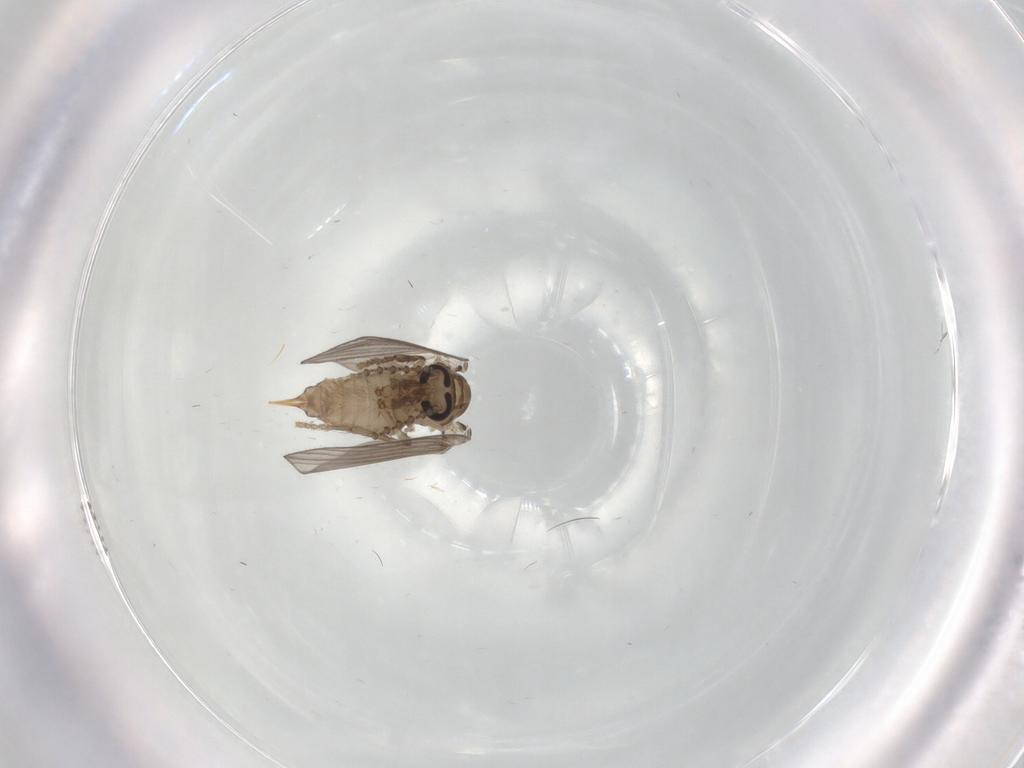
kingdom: Animalia
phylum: Arthropoda
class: Insecta
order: Diptera
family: Psychodidae
